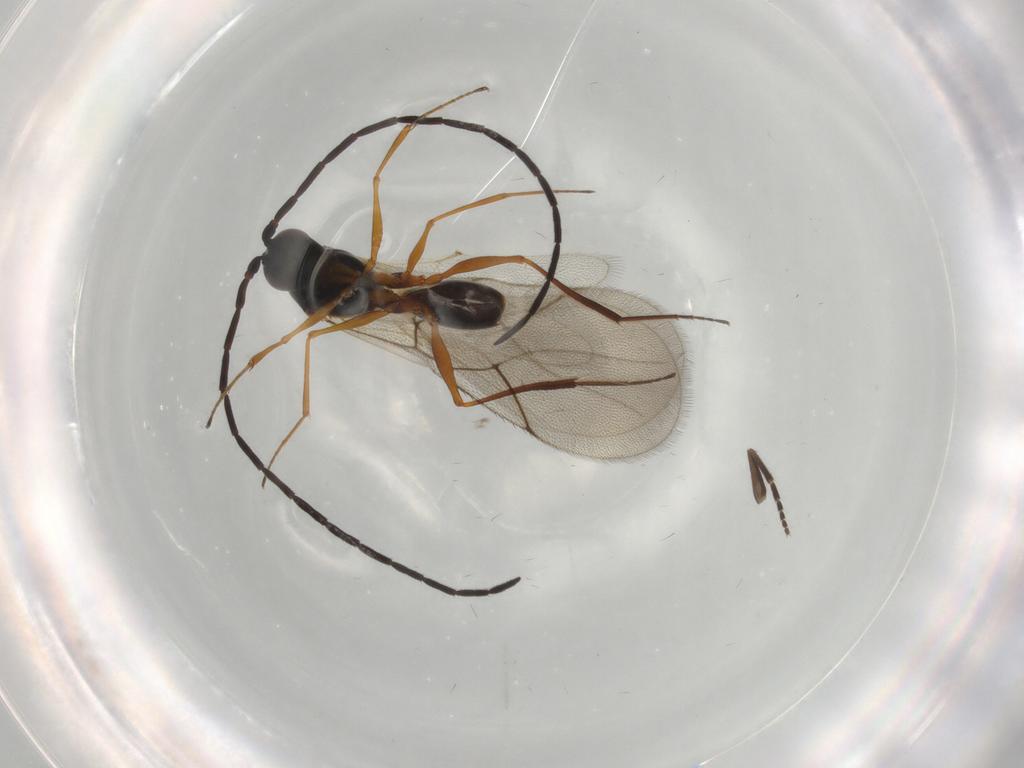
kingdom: Animalia
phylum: Arthropoda
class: Insecta
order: Hymenoptera
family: Figitidae
